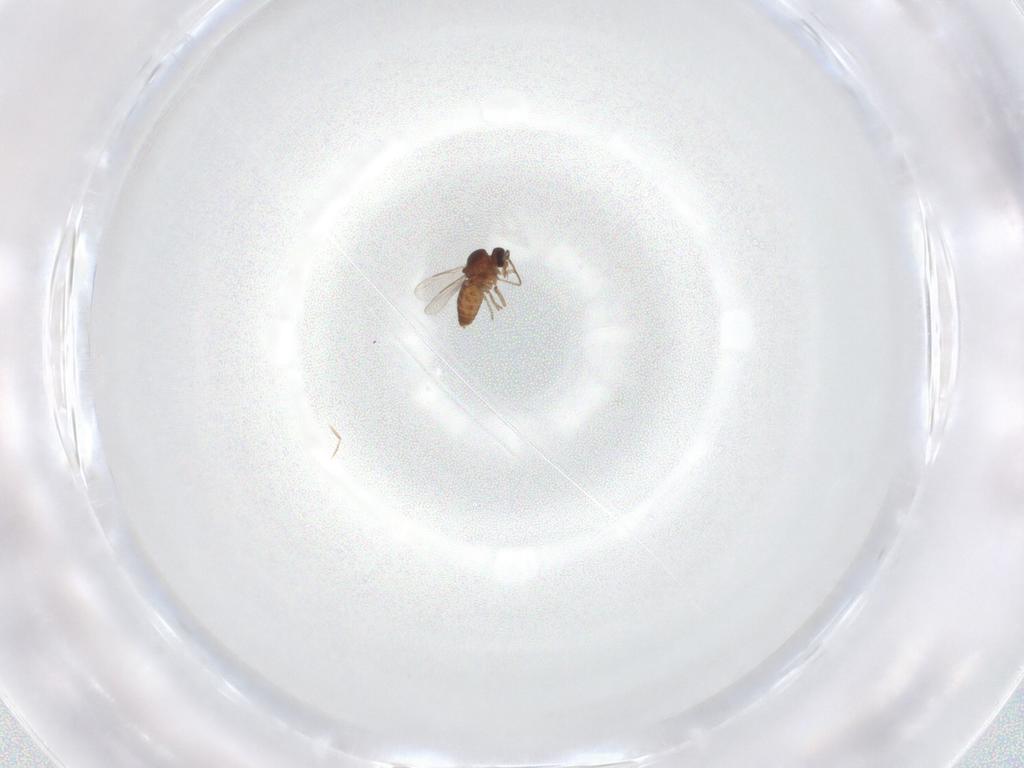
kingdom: Animalia
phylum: Arthropoda
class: Insecta
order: Diptera
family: Ceratopogonidae
